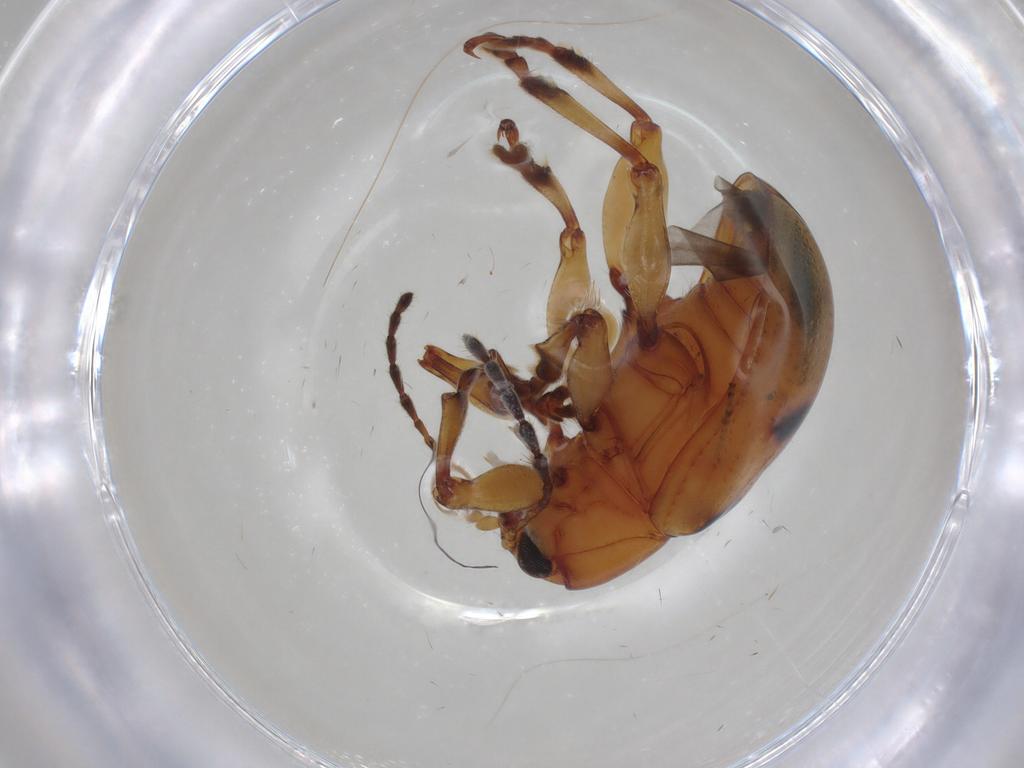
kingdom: Animalia
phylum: Arthropoda
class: Insecta
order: Coleoptera
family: Chrysomelidae
